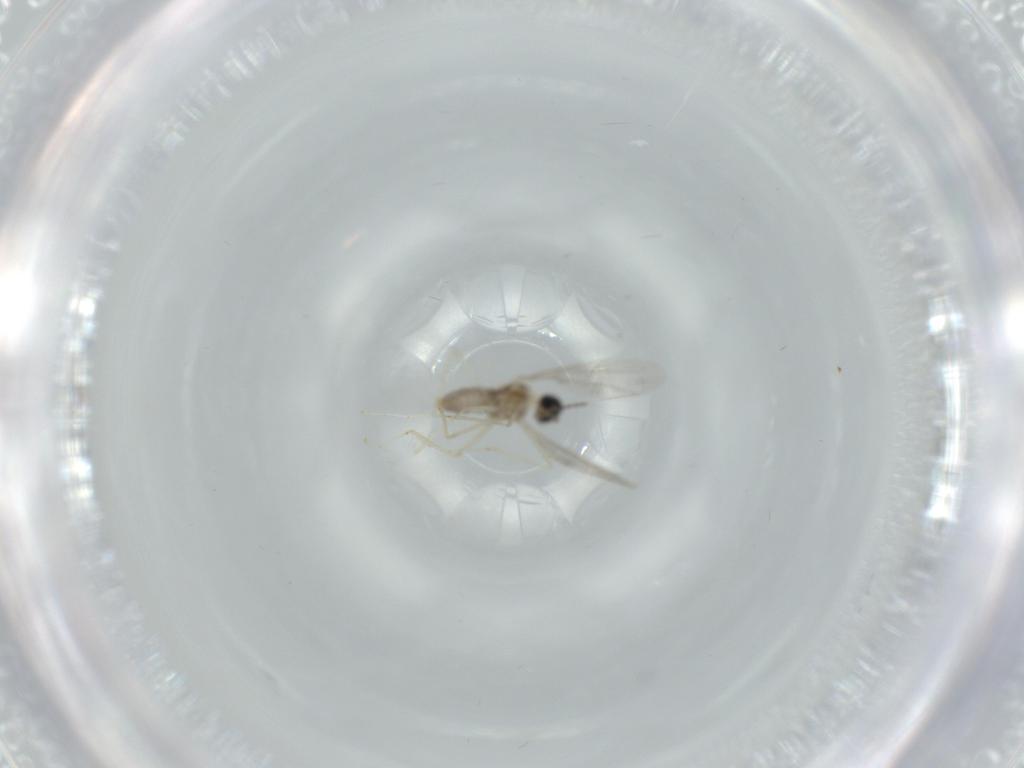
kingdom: Animalia
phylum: Arthropoda
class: Insecta
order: Diptera
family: Cecidomyiidae
